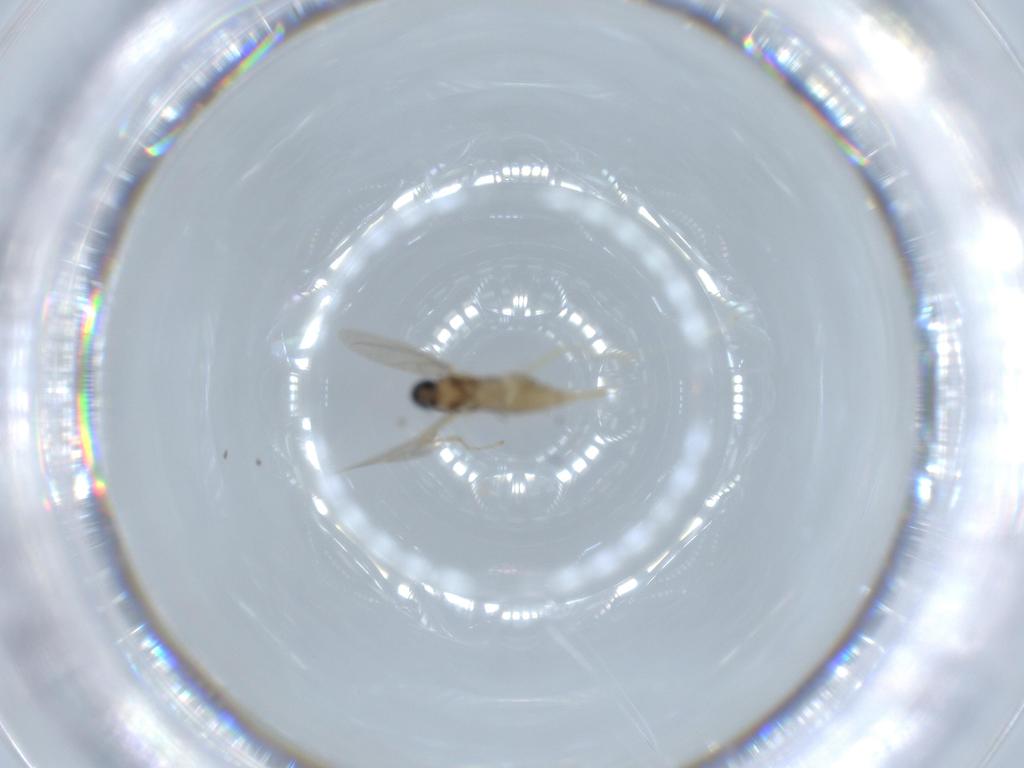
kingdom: Animalia
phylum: Arthropoda
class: Insecta
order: Diptera
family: Cecidomyiidae
